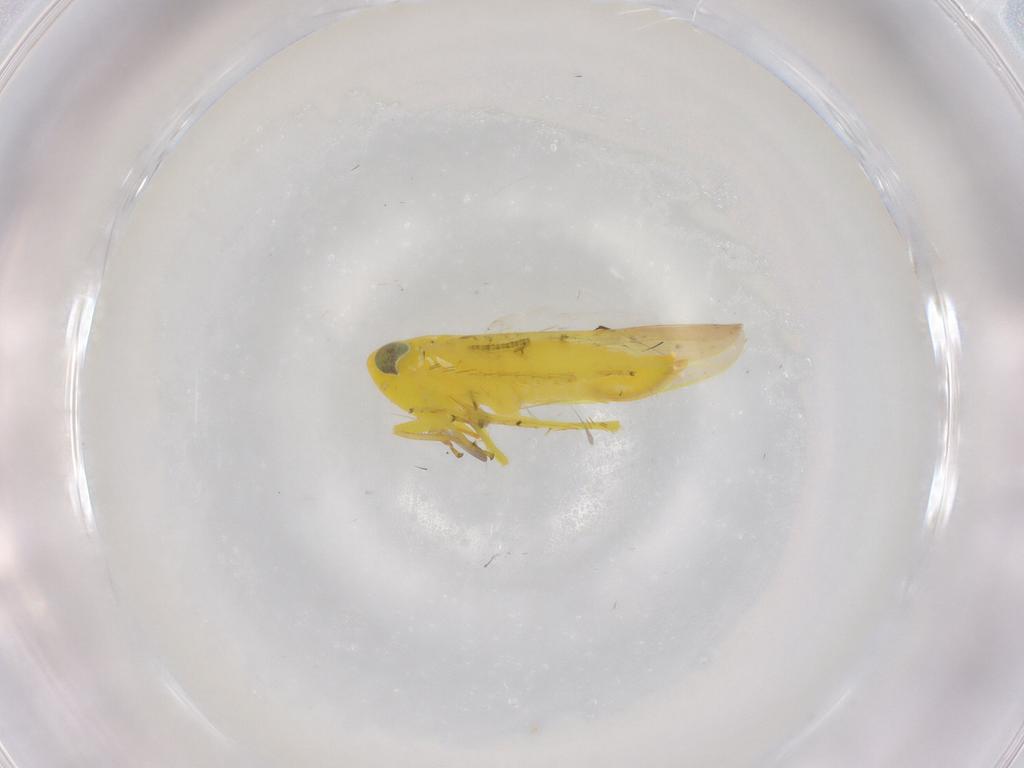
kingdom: Animalia
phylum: Arthropoda
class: Insecta
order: Hemiptera
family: Cicadellidae
